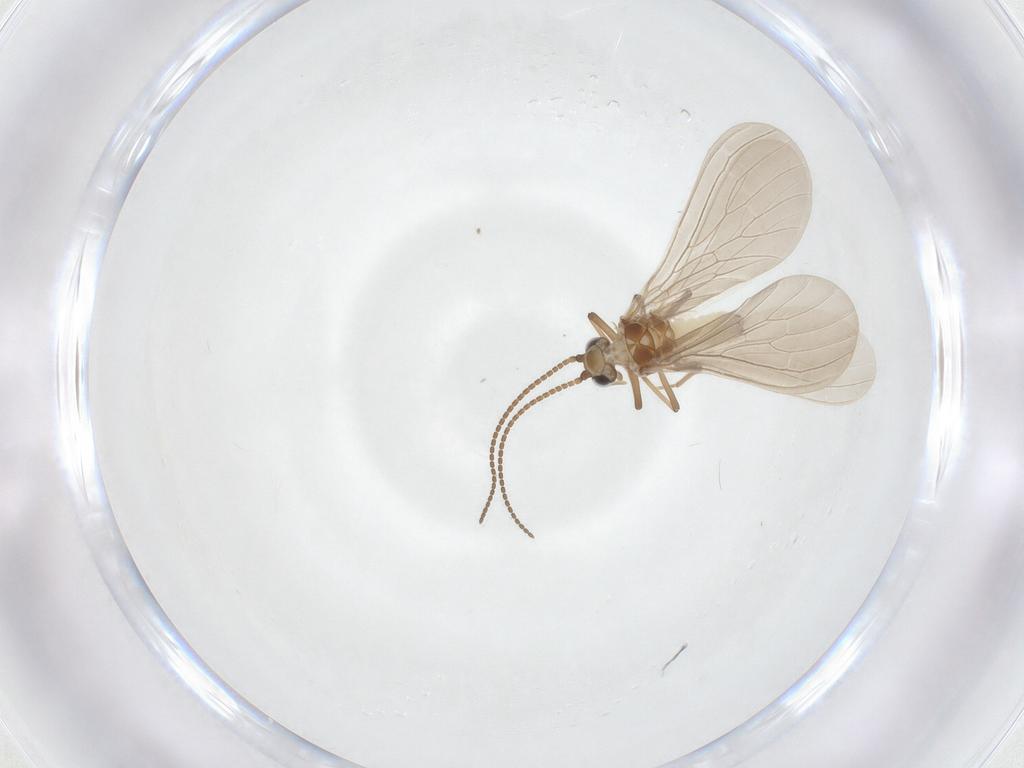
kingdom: Animalia
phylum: Arthropoda
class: Insecta
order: Neuroptera
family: Coniopterygidae
